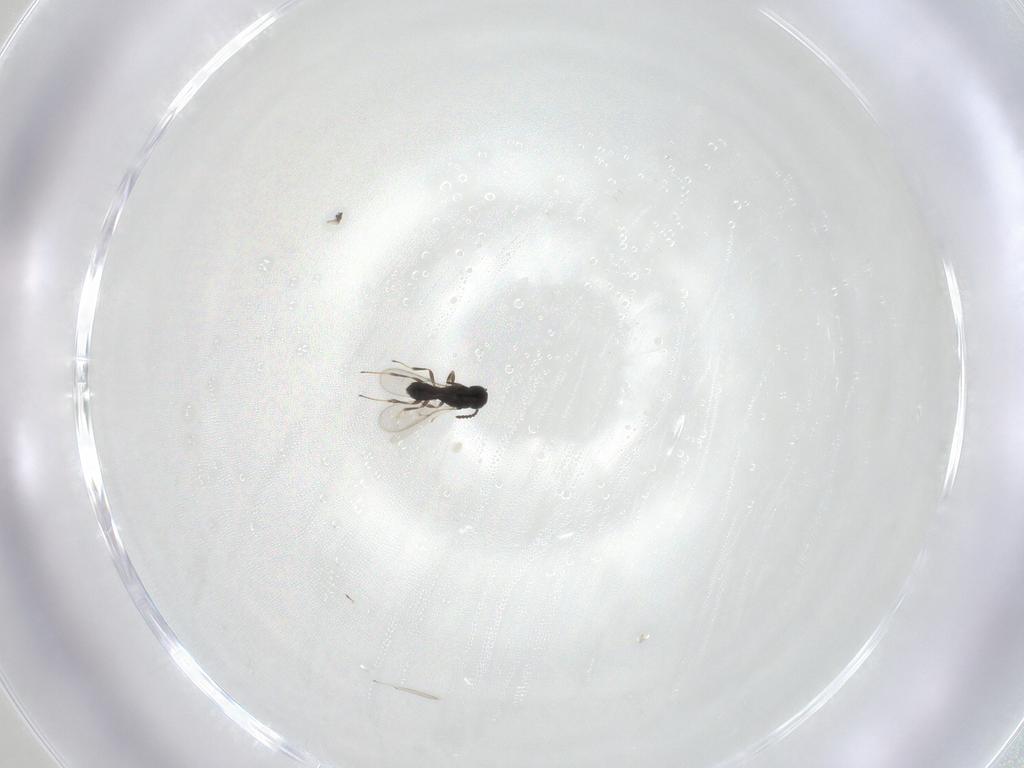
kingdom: Animalia
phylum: Arthropoda
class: Insecta
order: Hymenoptera
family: Scelionidae
